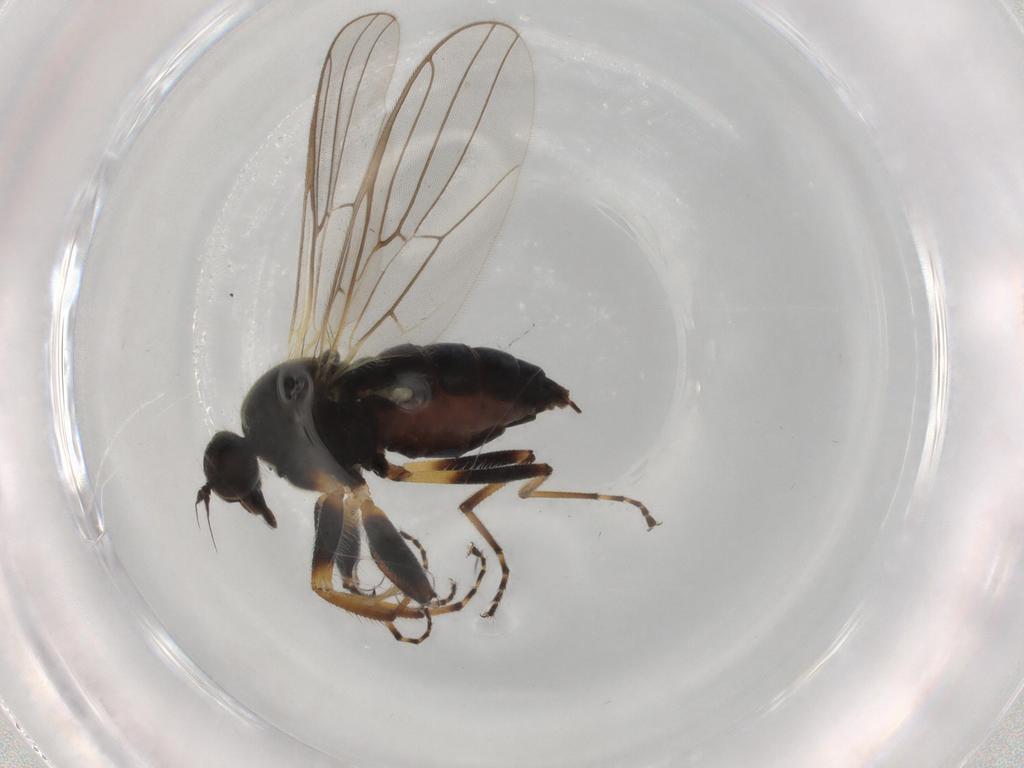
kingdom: Animalia
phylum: Arthropoda
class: Insecta
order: Diptera
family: Hybotidae
